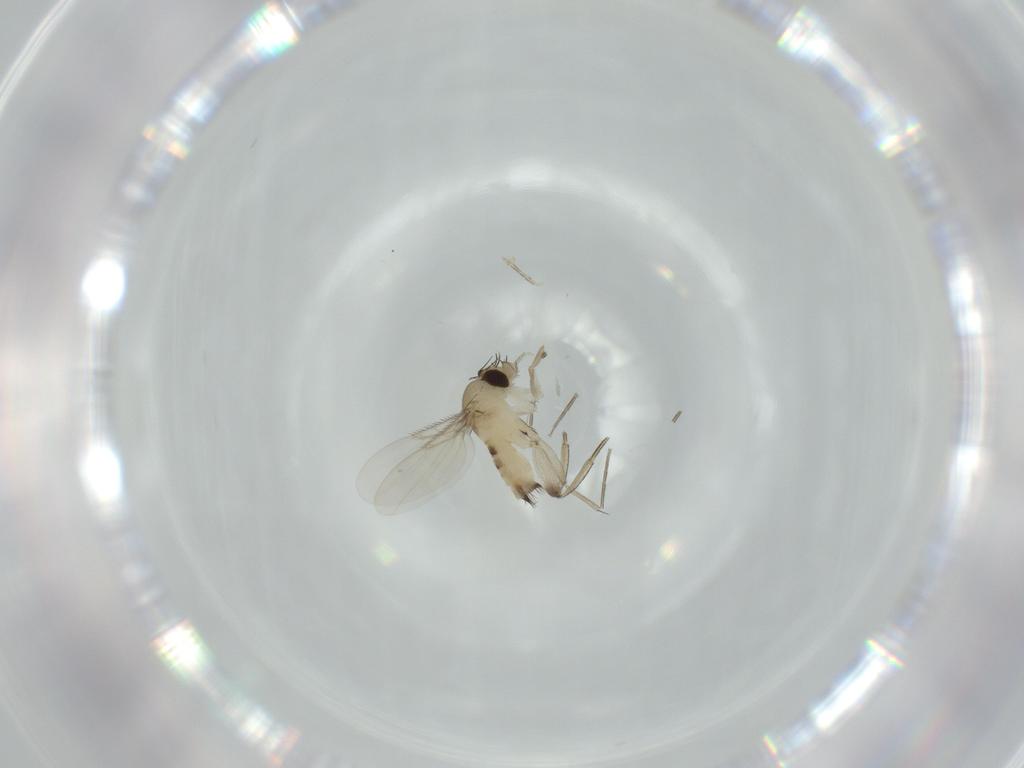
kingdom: Animalia
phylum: Arthropoda
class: Insecta
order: Diptera
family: Phoridae
